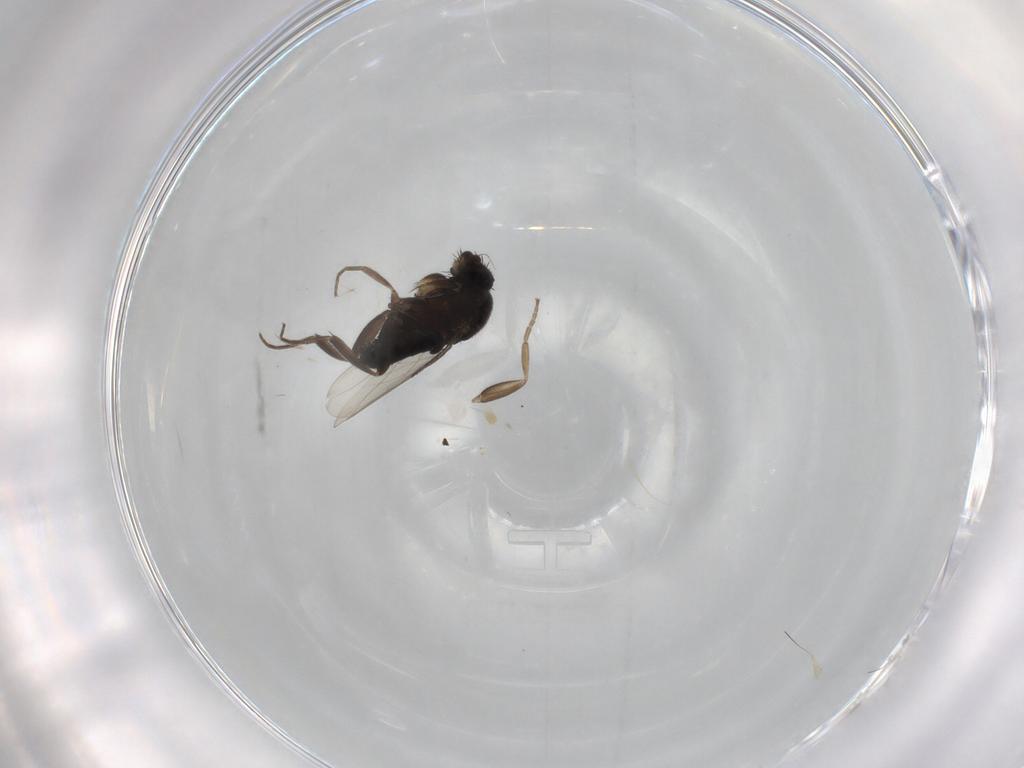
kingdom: Animalia
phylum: Arthropoda
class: Insecta
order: Diptera
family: Phoridae
